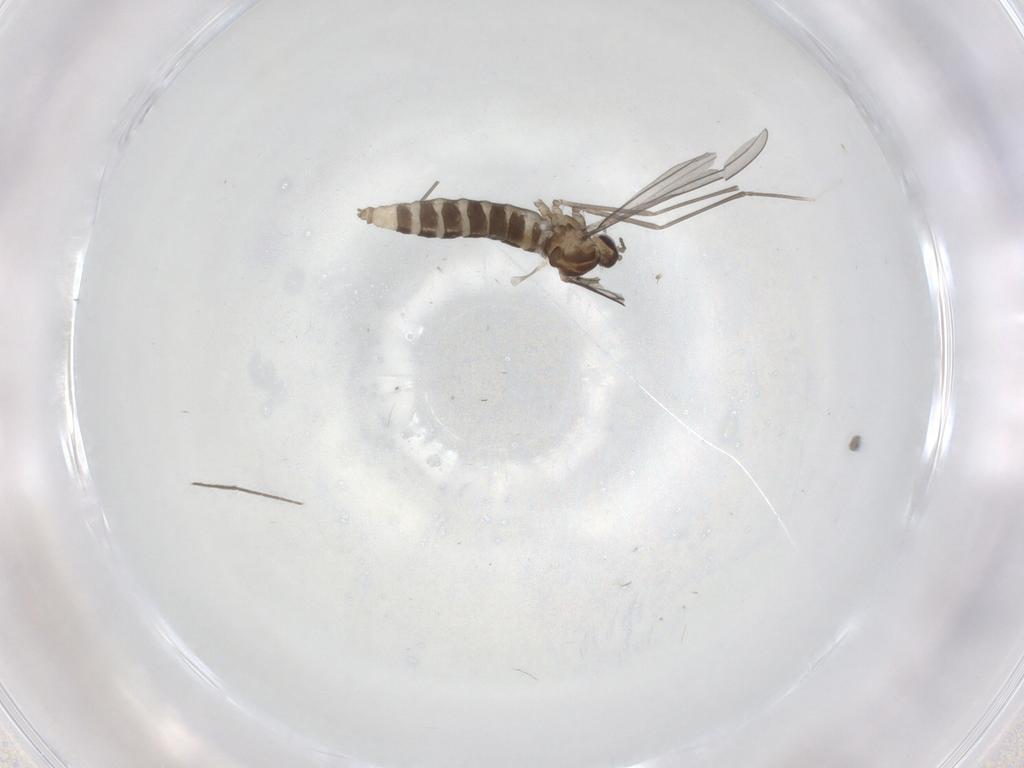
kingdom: Animalia
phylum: Arthropoda
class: Insecta
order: Diptera
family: Cecidomyiidae
